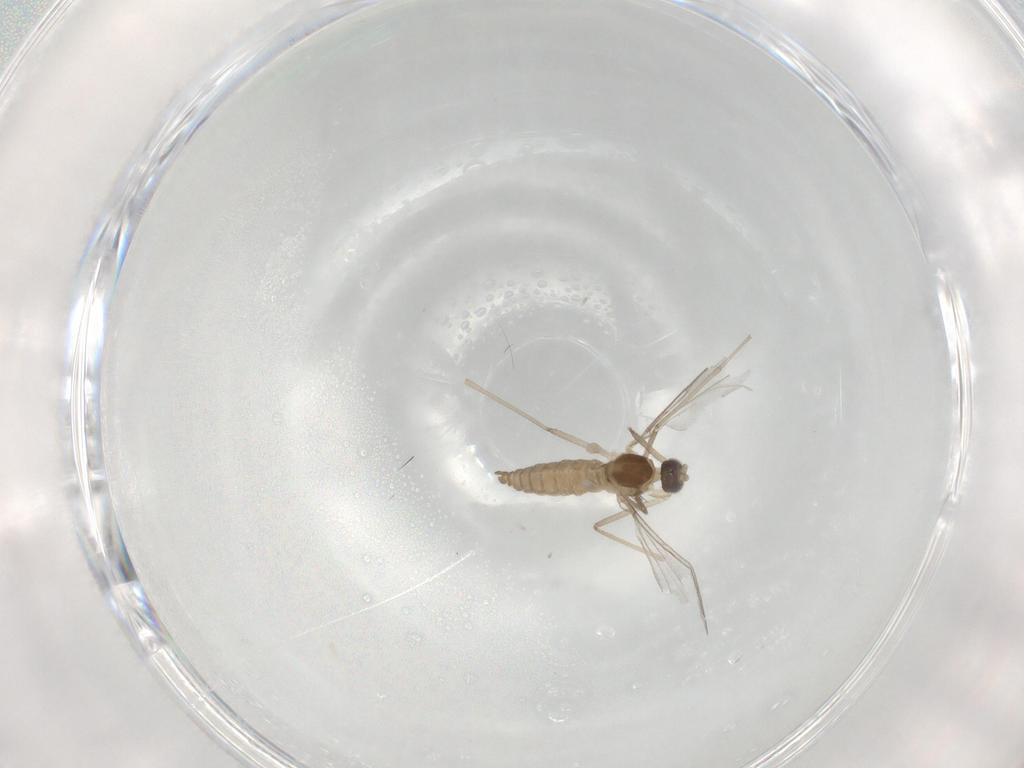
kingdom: Animalia
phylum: Arthropoda
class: Insecta
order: Diptera
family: Cecidomyiidae
